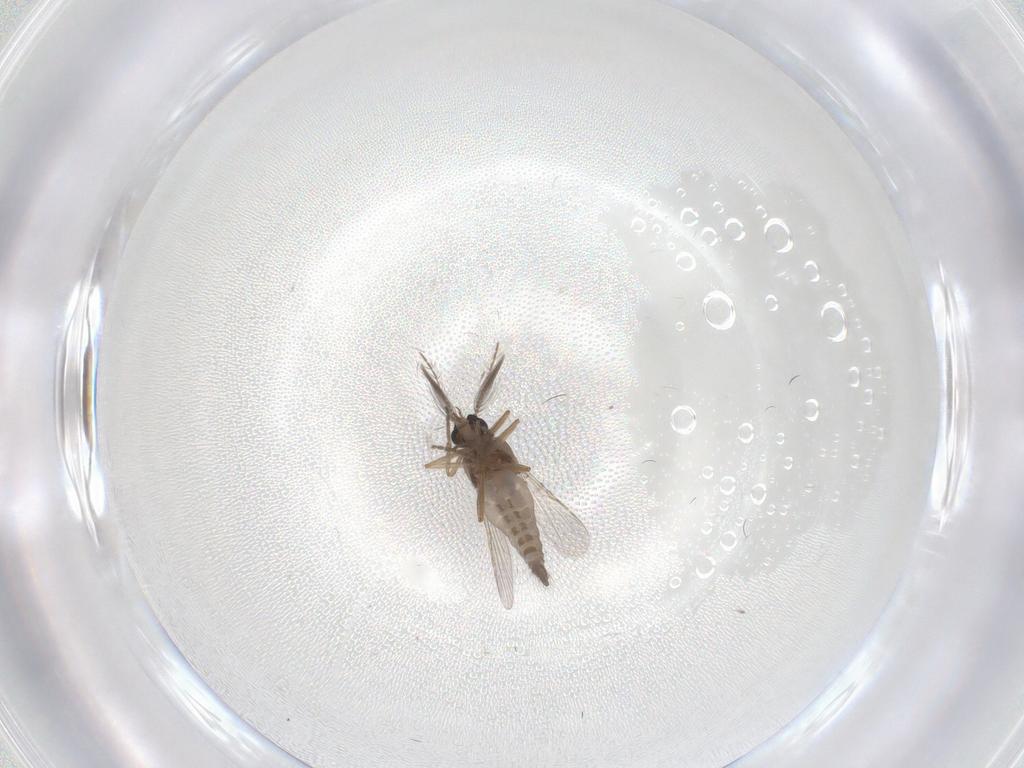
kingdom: Animalia
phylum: Arthropoda
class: Insecta
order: Diptera
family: Ceratopogonidae
